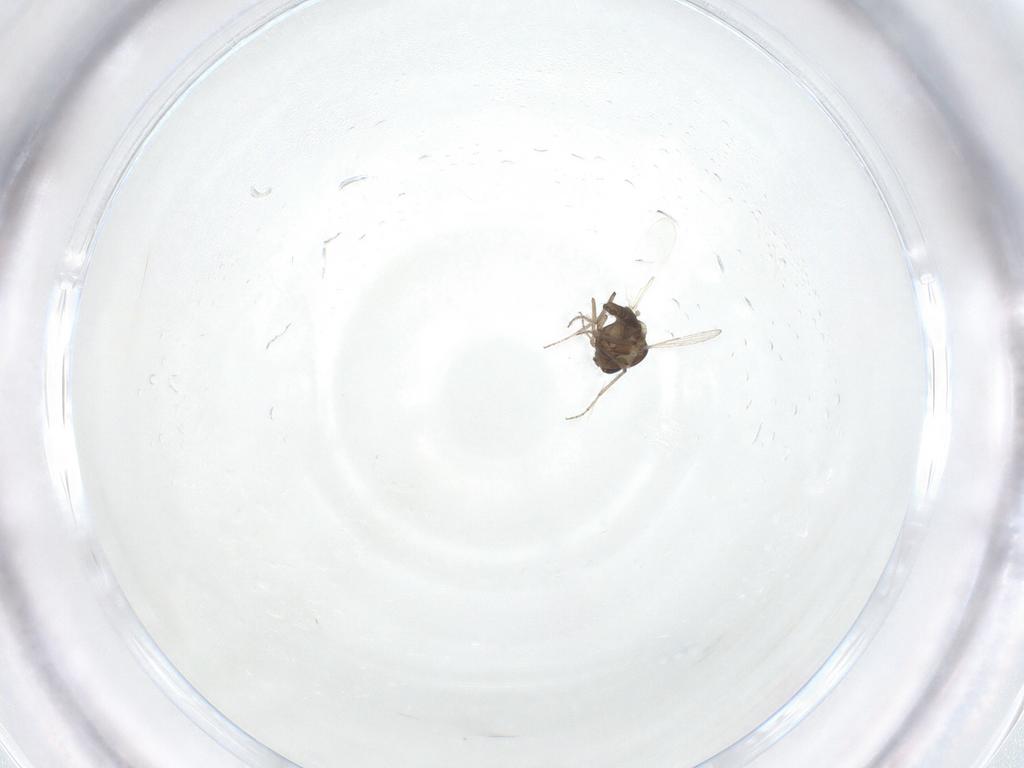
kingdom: Animalia
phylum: Arthropoda
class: Insecta
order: Diptera
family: Ceratopogonidae
